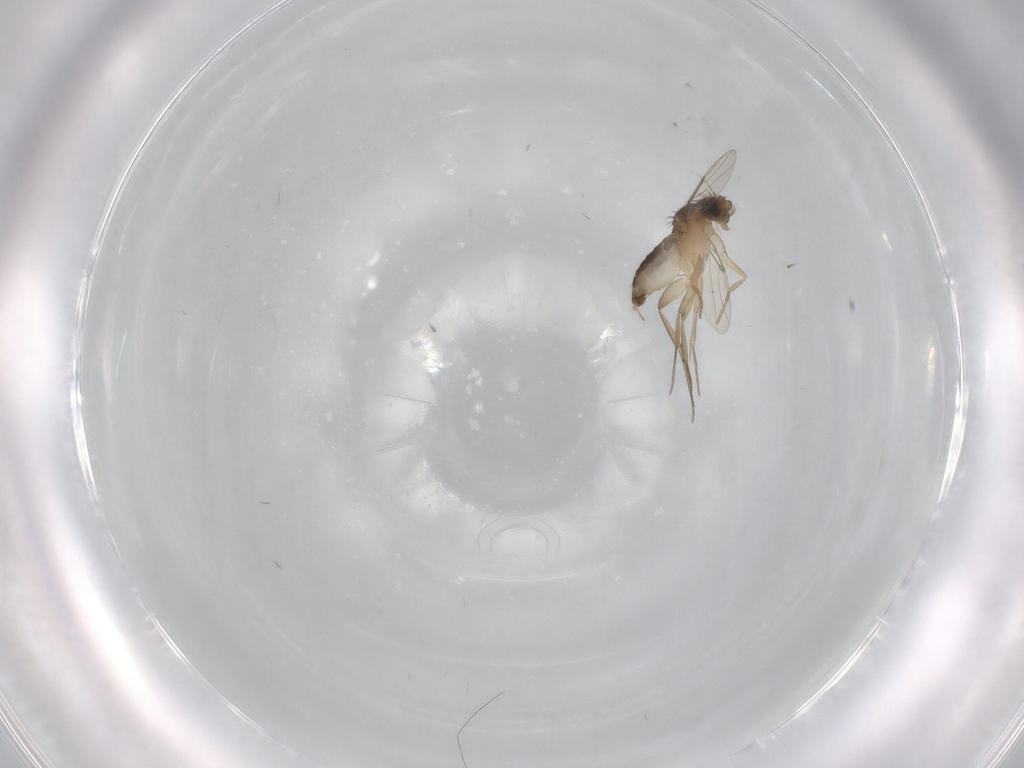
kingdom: Animalia
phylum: Arthropoda
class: Insecta
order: Diptera
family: Phoridae
